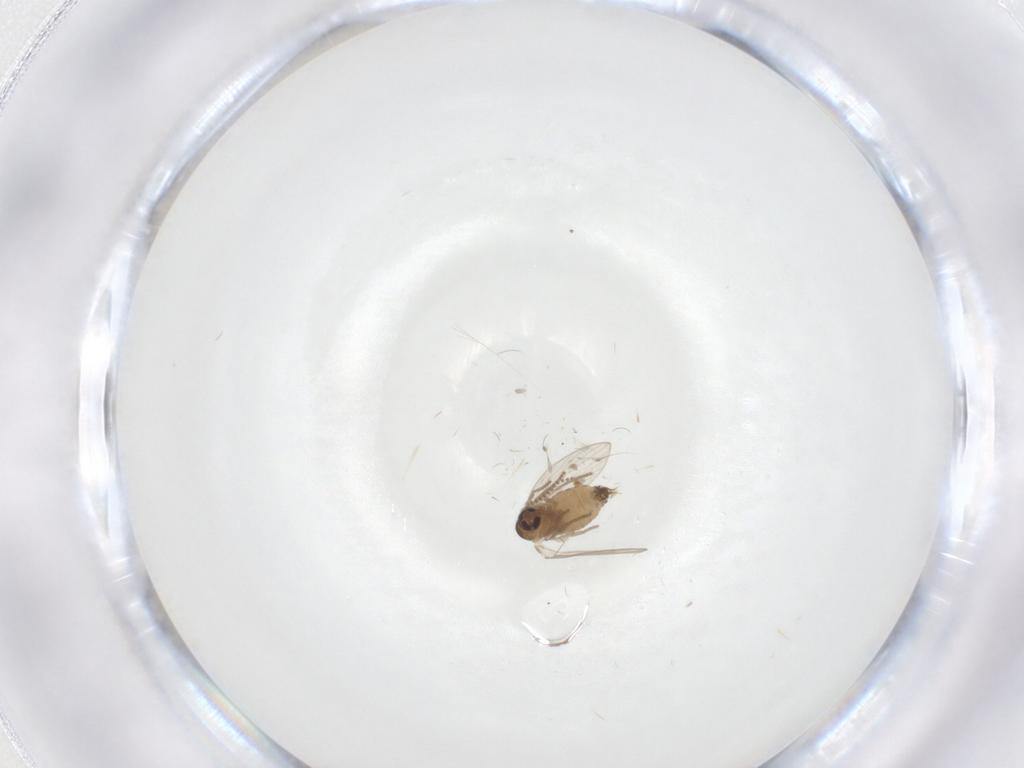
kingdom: Animalia
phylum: Arthropoda
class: Insecta
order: Diptera
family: Psychodidae
